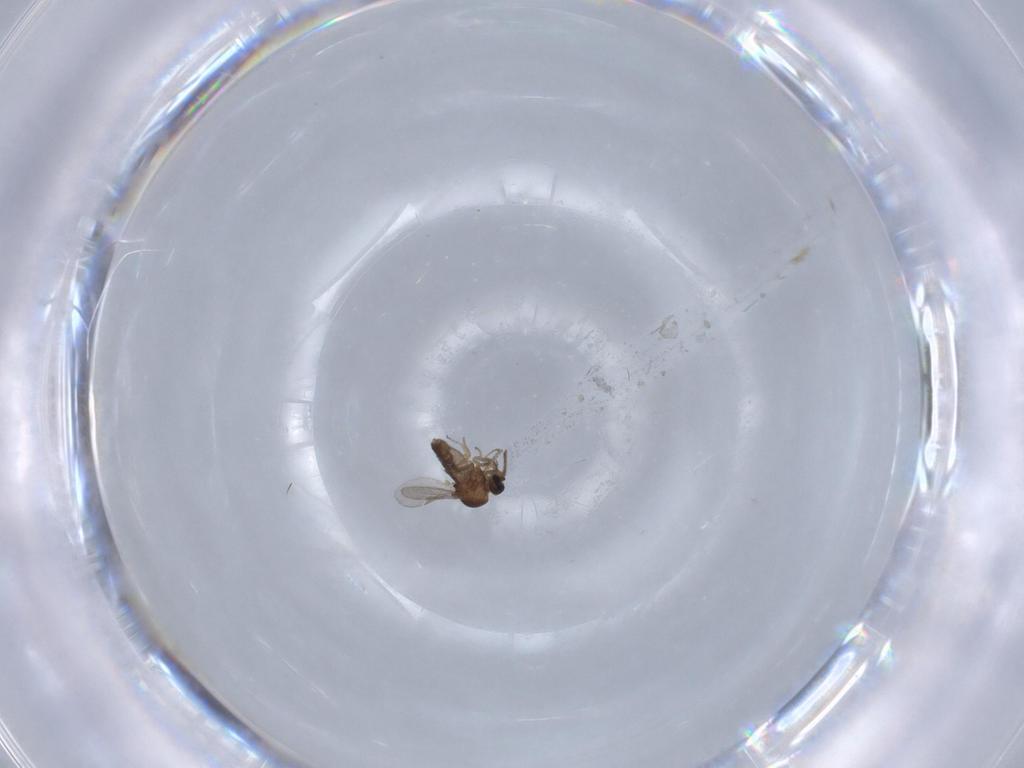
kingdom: Animalia
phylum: Arthropoda
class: Insecta
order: Diptera
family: Ceratopogonidae
